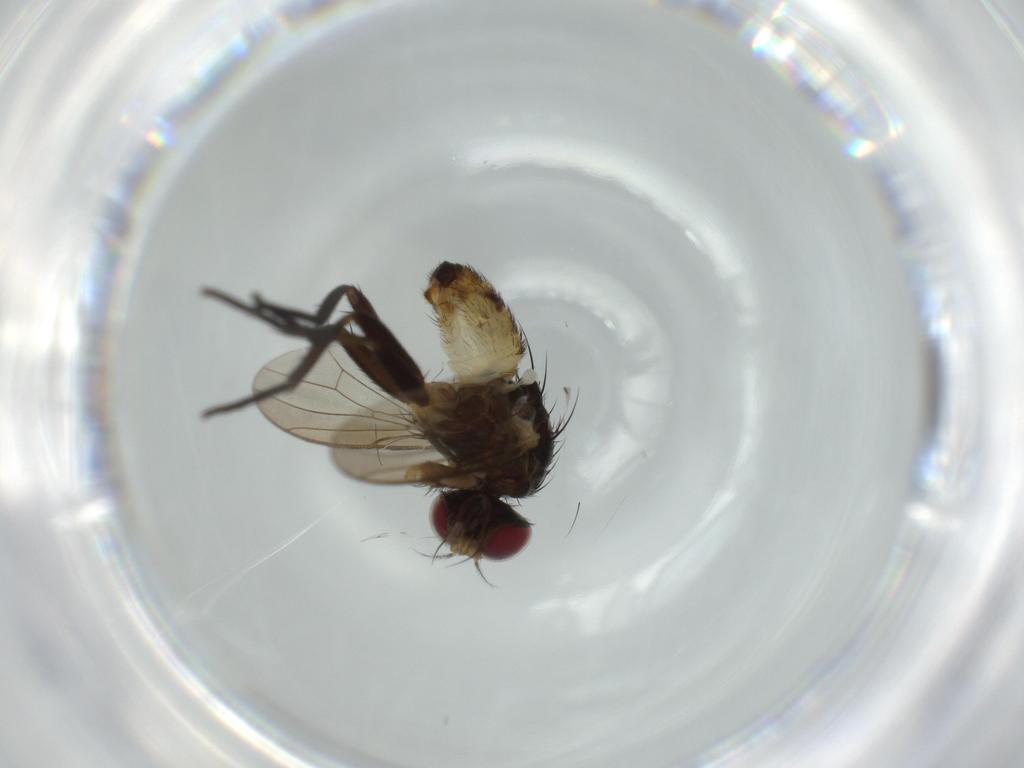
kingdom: Animalia
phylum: Arthropoda
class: Insecta
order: Diptera
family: Anthomyiidae
